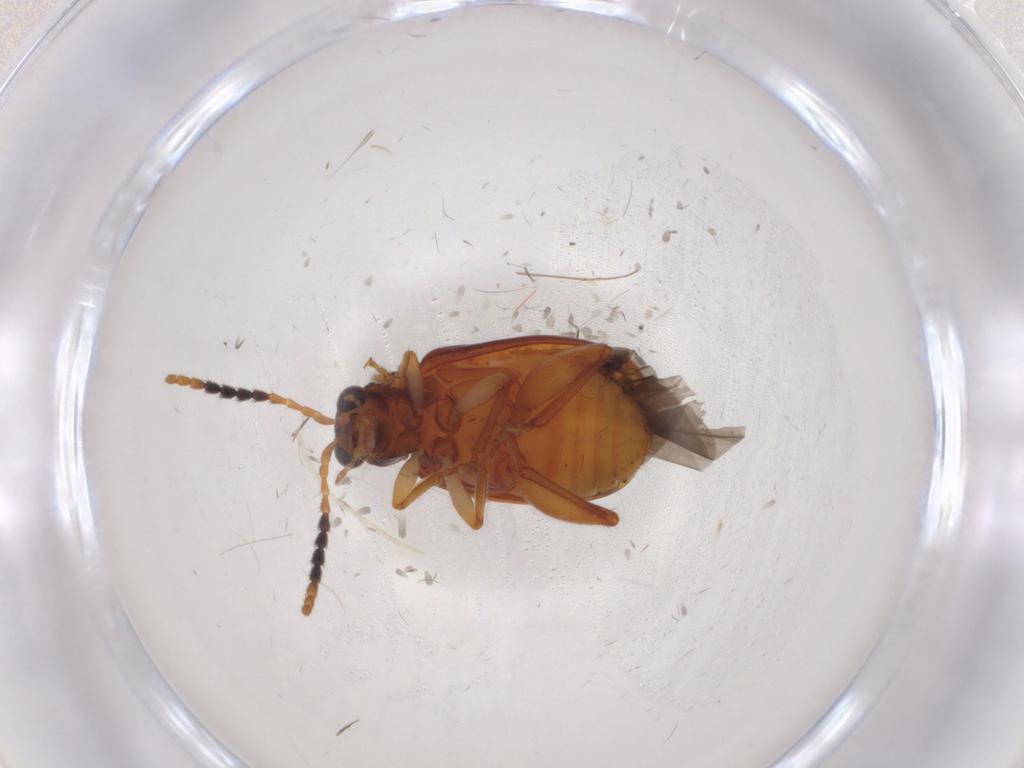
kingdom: Animalia
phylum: Arthropoda
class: Insecta
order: Coleoptera
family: Chrysomelidae
